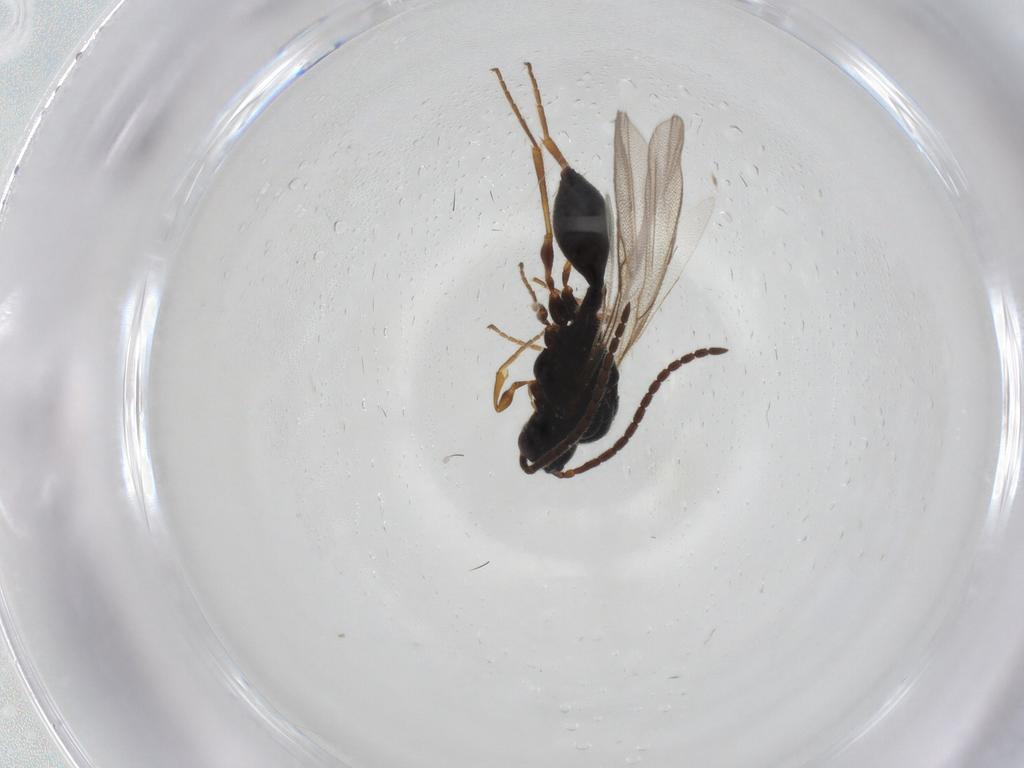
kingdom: Animalia
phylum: Arthropoda
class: Insecta
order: Hymenoptera
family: Diapriidae
